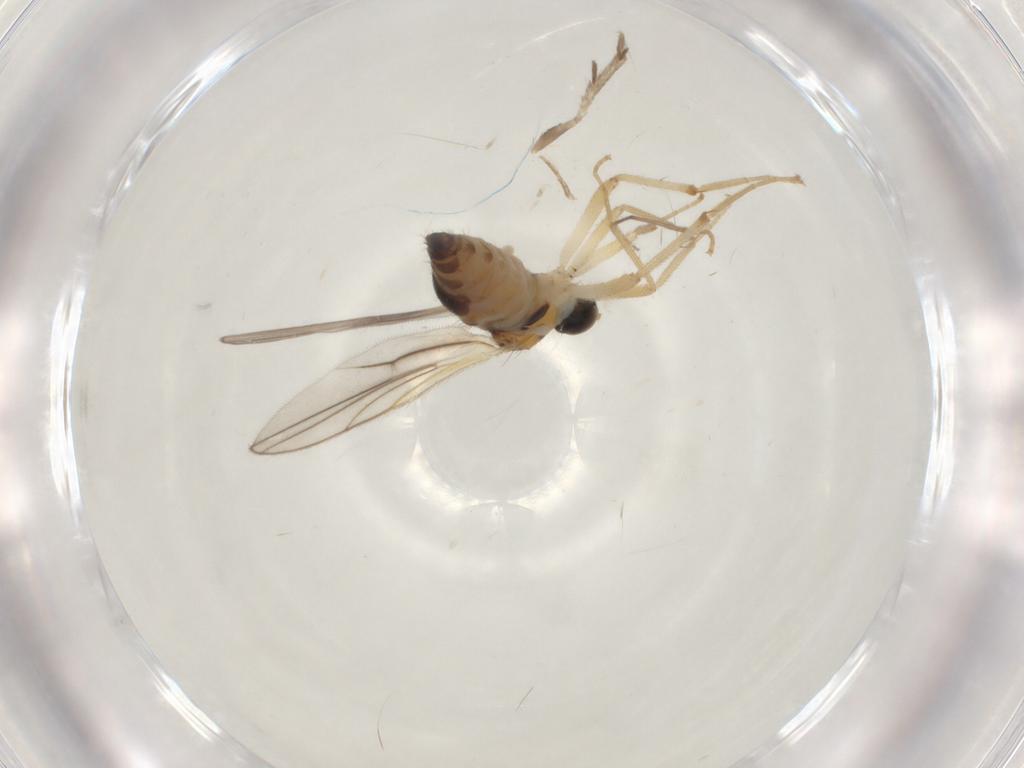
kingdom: Animalia
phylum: Arthropoda
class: Insecta
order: Diptera
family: Hybotidae
